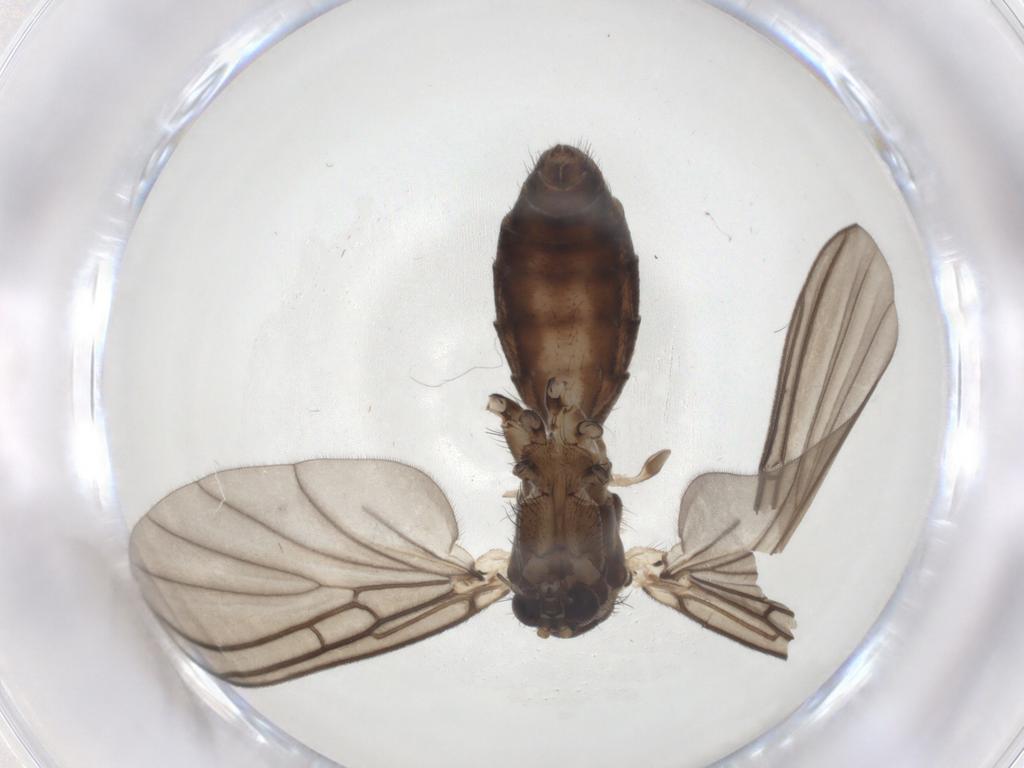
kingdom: Animalia
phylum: Arthropoda
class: Insecta
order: Diptera
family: Mycetophilidae
